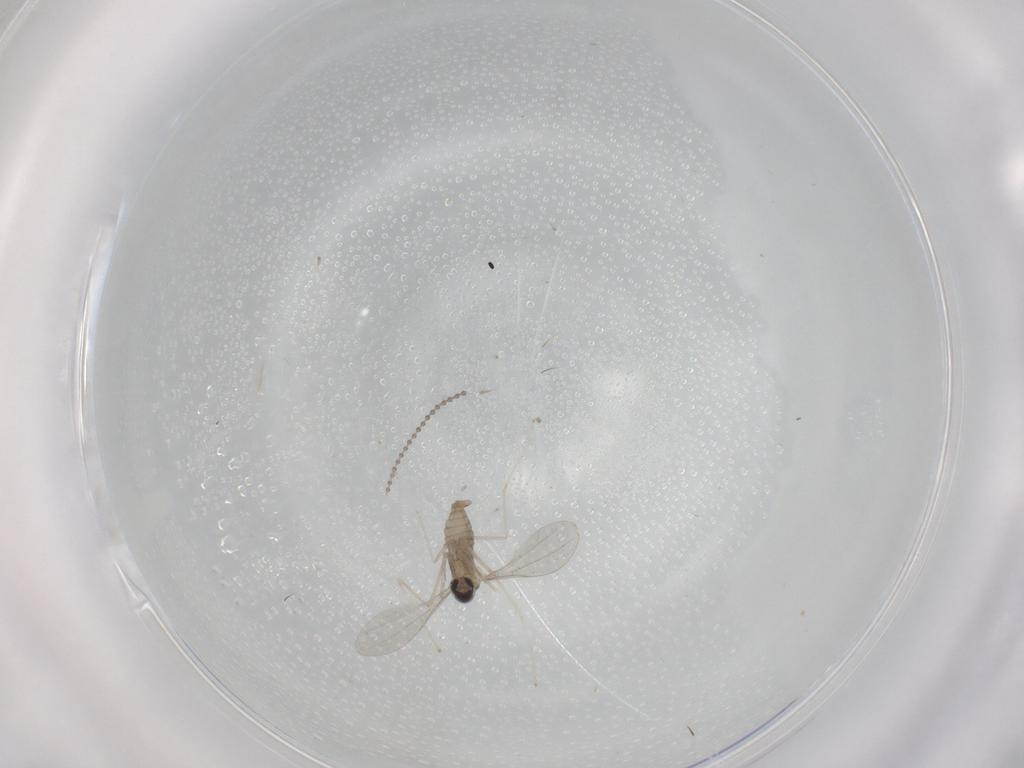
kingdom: Animalia
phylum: Arthropoda
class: Insecta
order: Diptera
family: Cecidomyiidae
